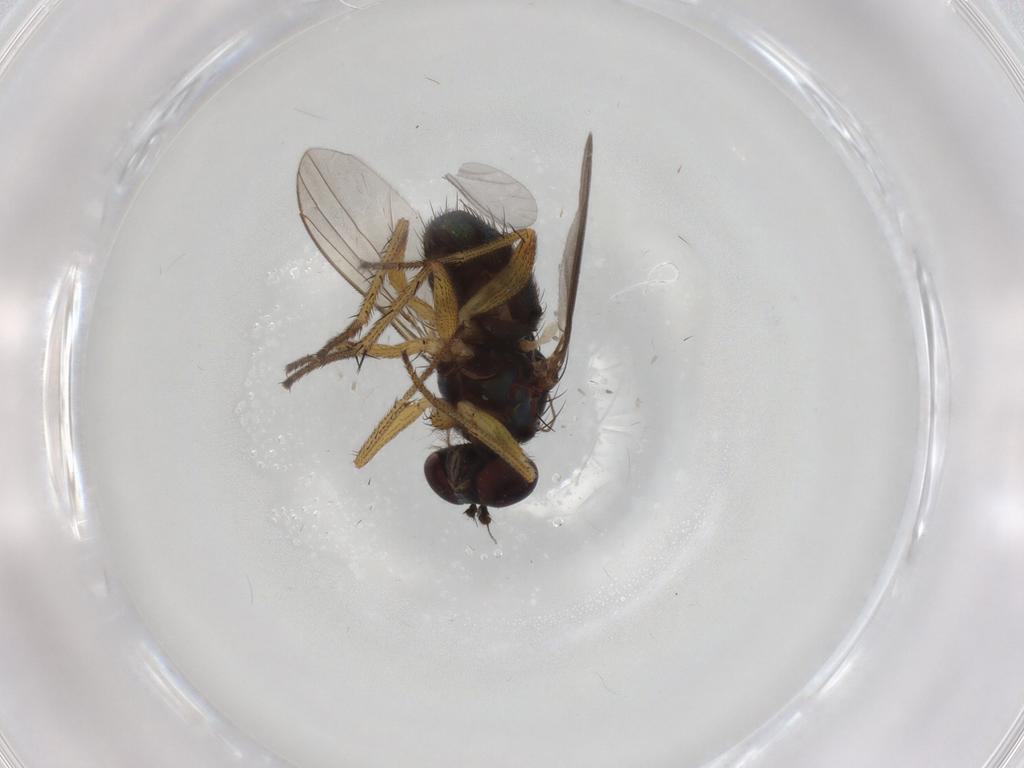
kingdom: Animalia
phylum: Arthropoda
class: Insecta
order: Diptera
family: Dolichopodidae
